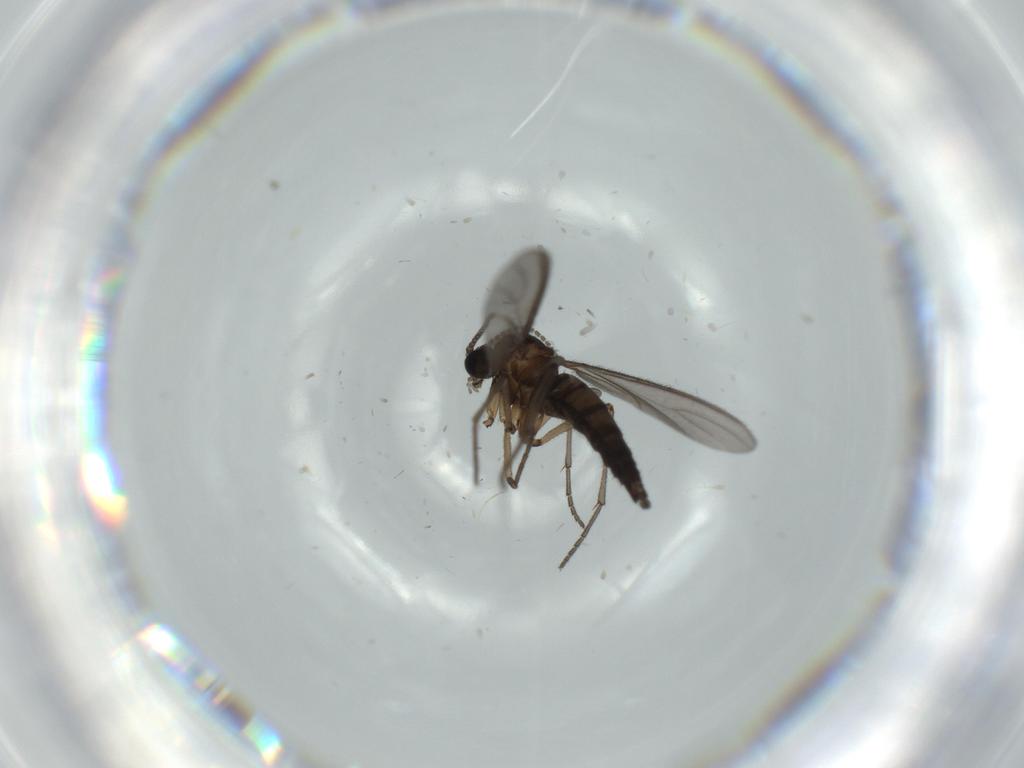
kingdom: Animalia
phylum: Arthropoda
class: Insecta
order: Diptera
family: Sciaridae
